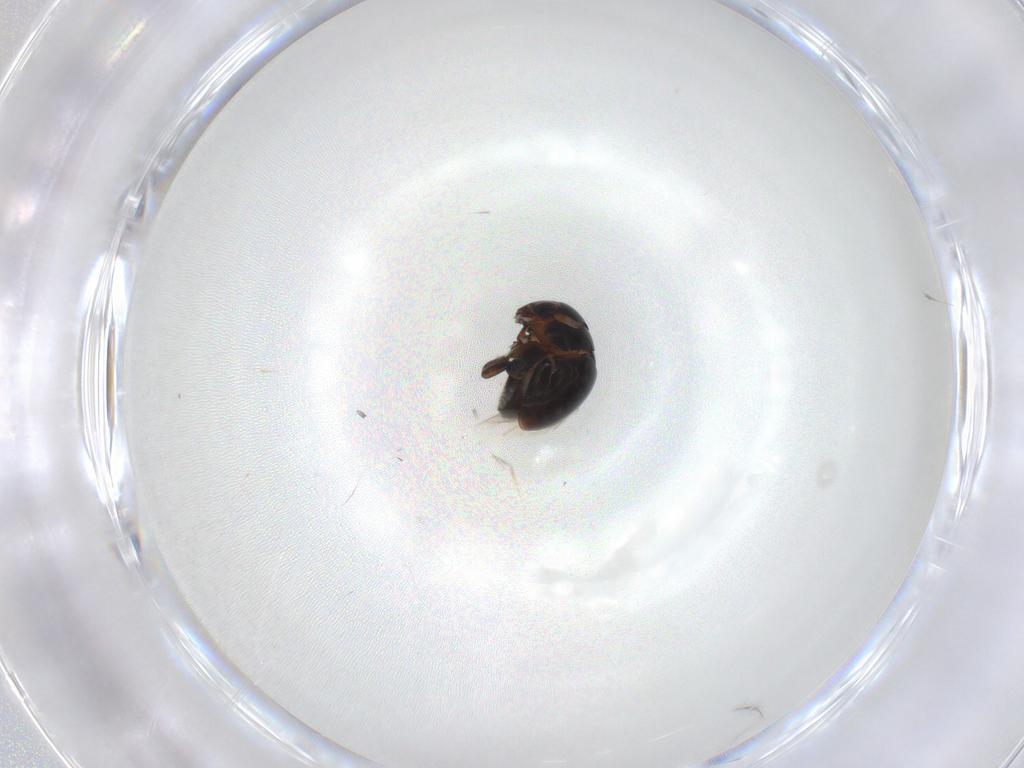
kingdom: Animalia
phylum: Arthropoda
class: Insecta
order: Coleoptera
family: Cybocephalidae
